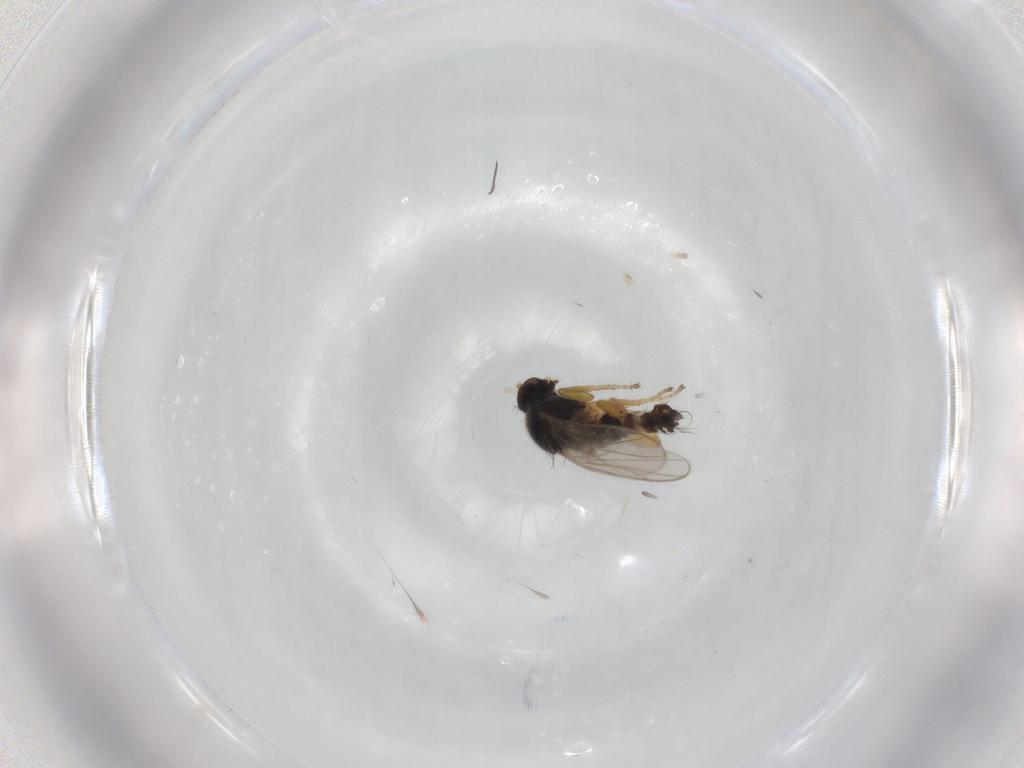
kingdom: Animalia
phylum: Arthropoda
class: Insecta
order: Diptera
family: Hybotidae
